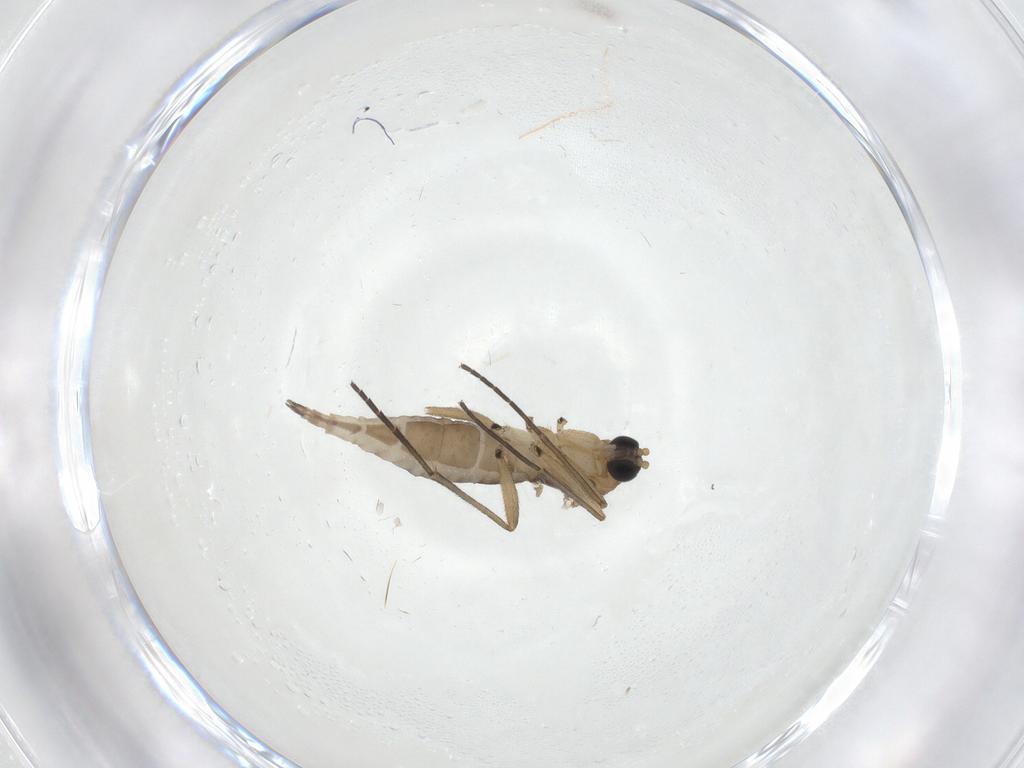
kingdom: Animalia
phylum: Arthropoda
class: Insecta
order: Diptera
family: Sciaridae
